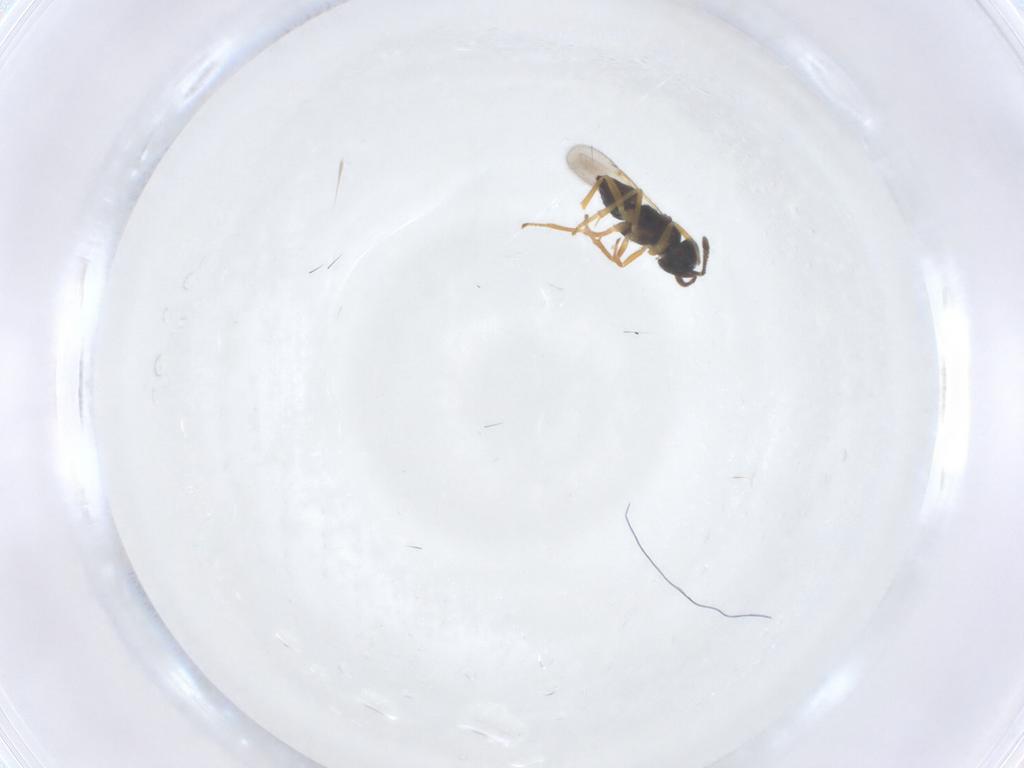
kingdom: Animalia
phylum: Arthropoda
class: Insecta
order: Hymenoptera
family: Encyrtidae
